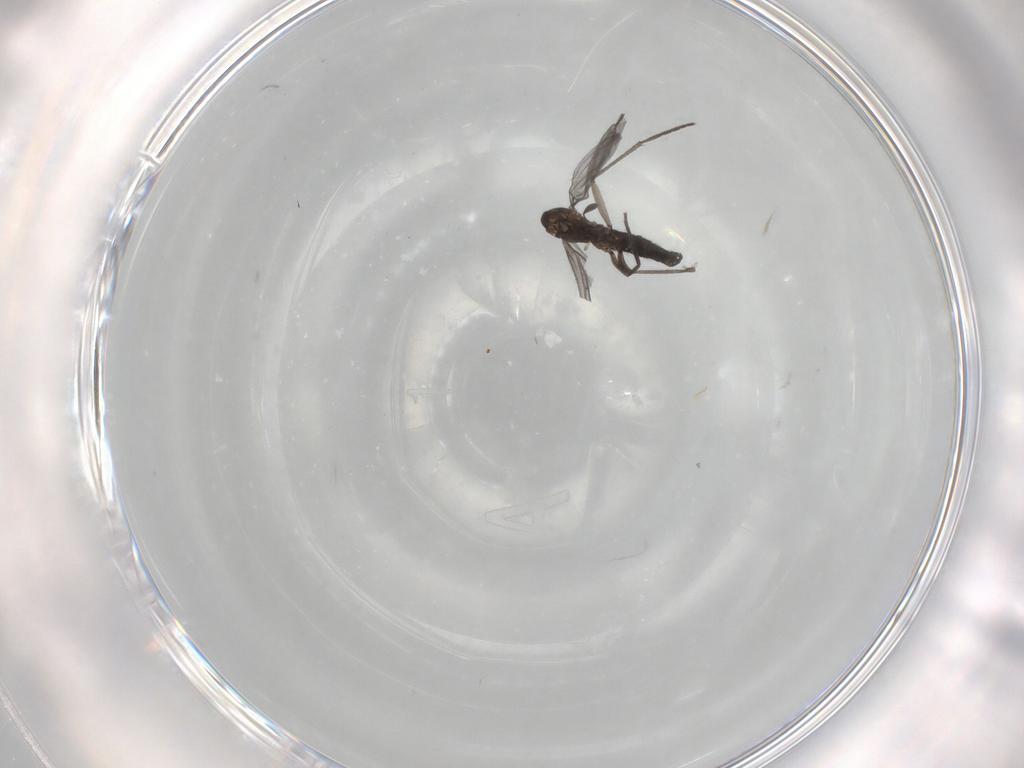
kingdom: Animalia
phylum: Arthropoda
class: Insecta
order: Diptera
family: Sciaridae
